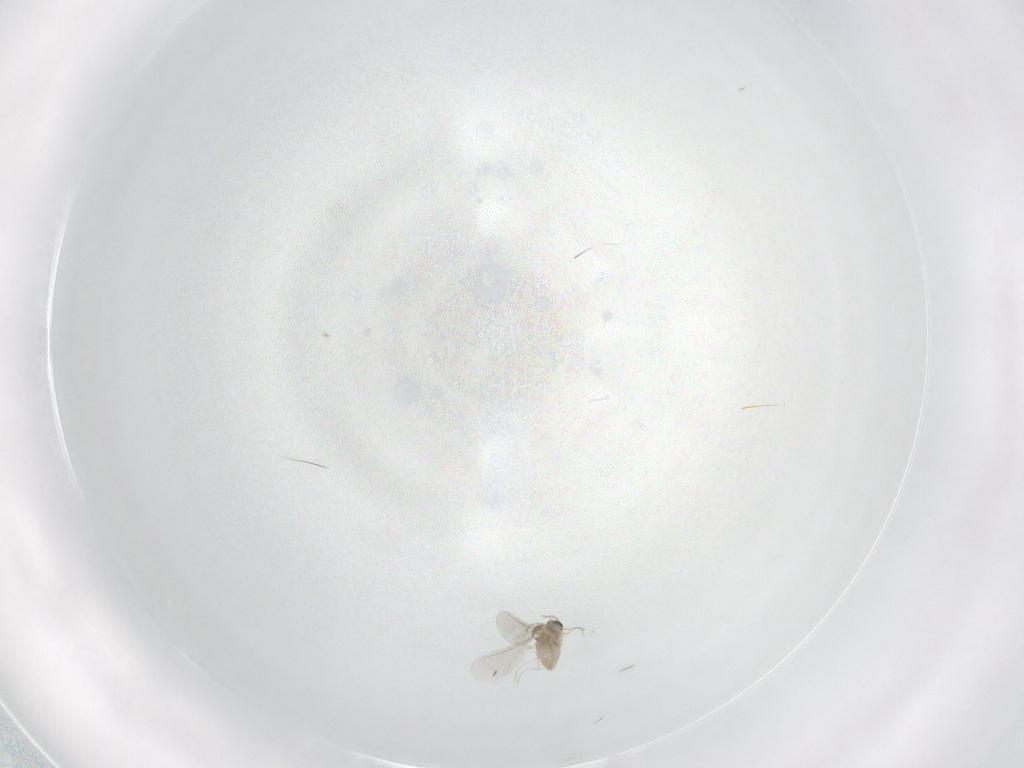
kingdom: Animalia
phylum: Arthropoda
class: Insecta
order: Diptera
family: Cecidomyiidae
